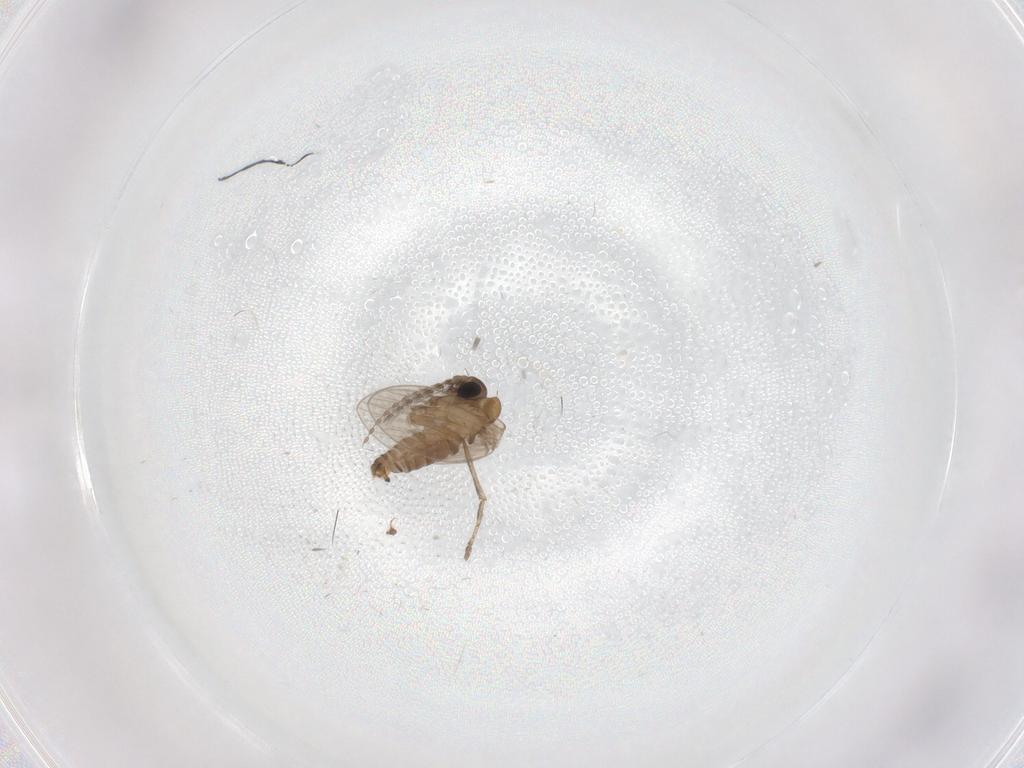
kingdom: Animalia
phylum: Arthropoda
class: Insecta
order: Diptera
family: Psychodidae
